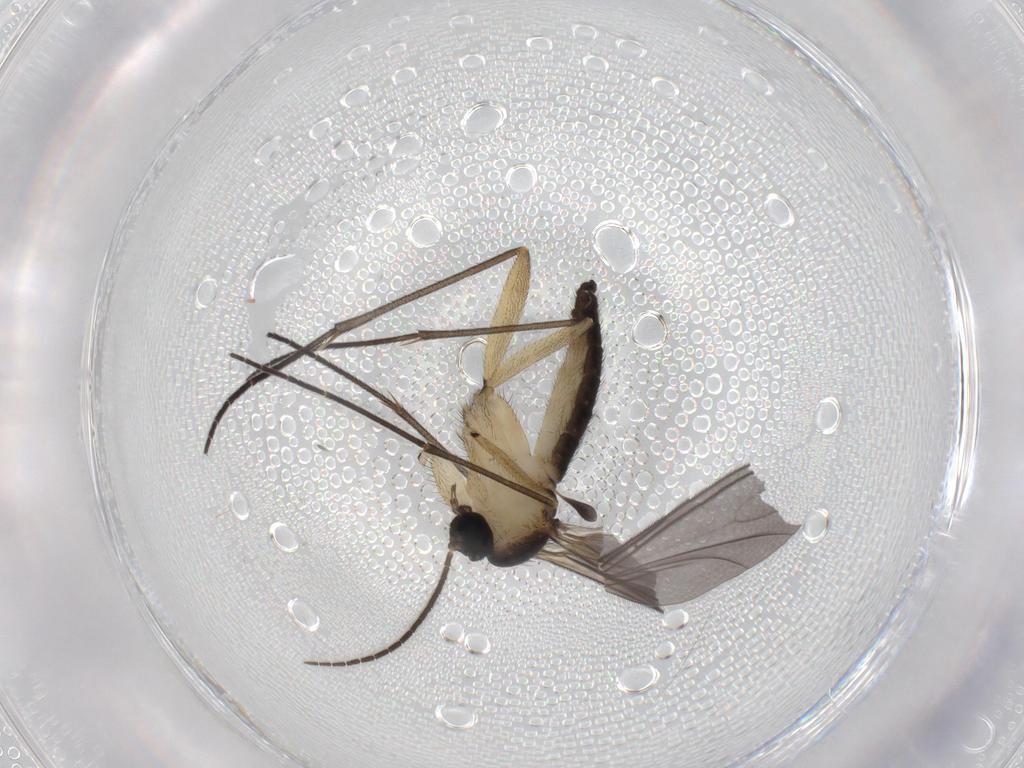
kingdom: Animalia
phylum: Arthropoda
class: Insecta
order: Diptera
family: Sciaridae
